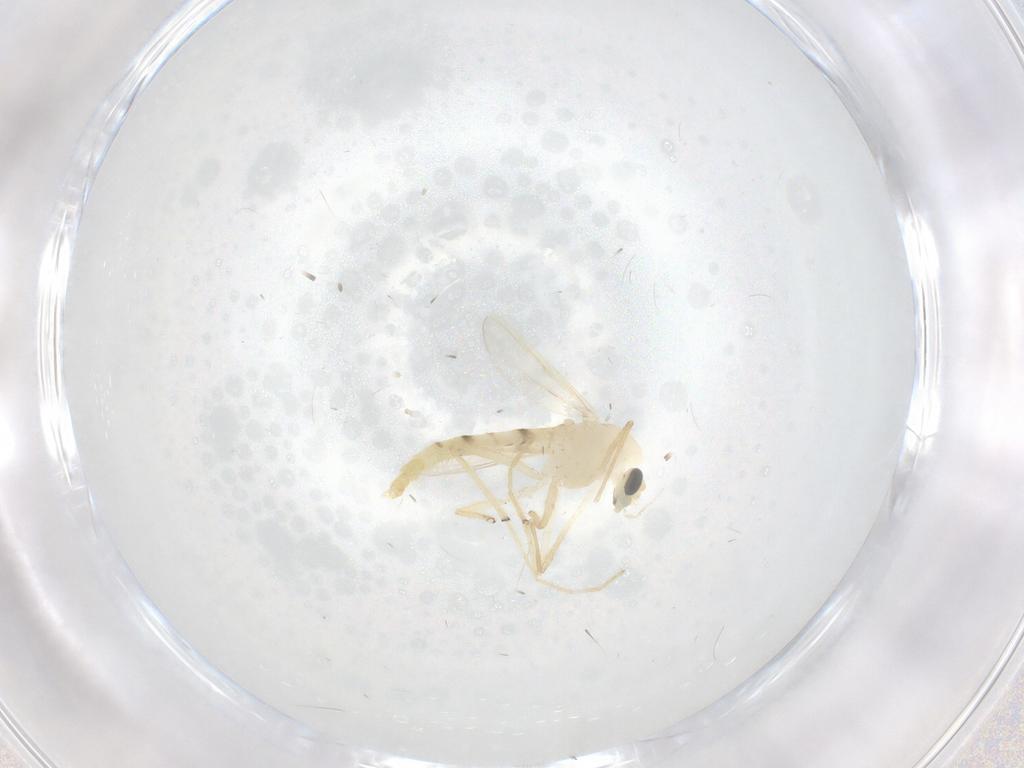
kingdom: Animalia
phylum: Arthropoda
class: Insecta
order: Diptera
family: Chironomidae
